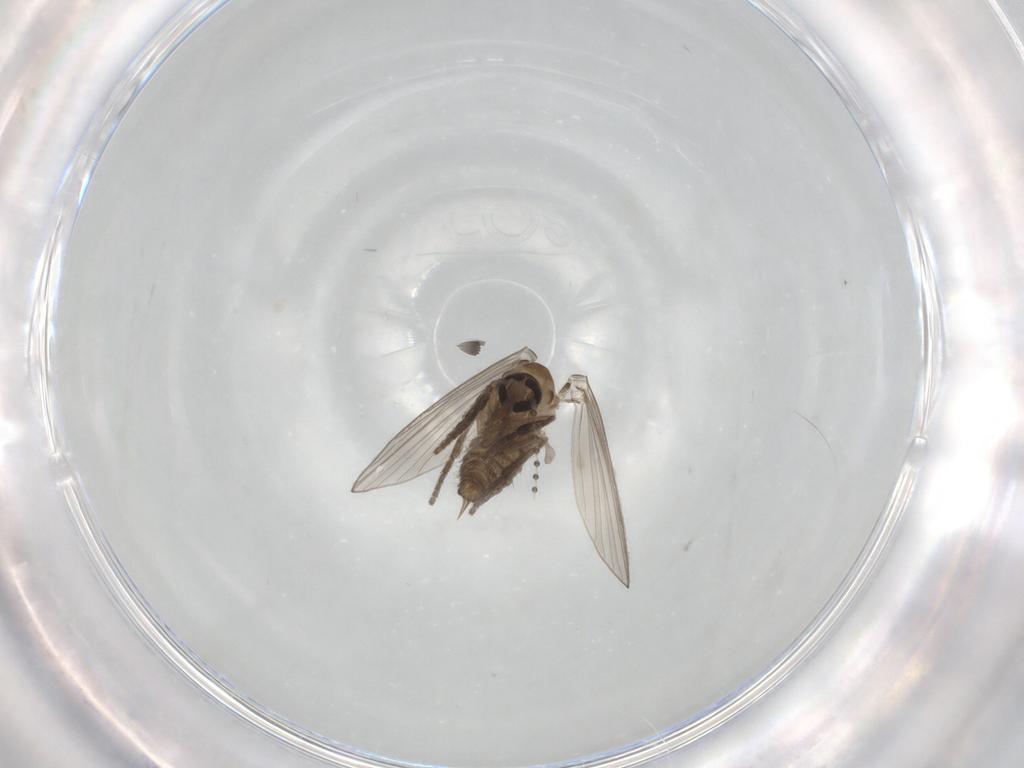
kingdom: Animalia
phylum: Arthropoda
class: Insecta
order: Diptera
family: Psychodidae
